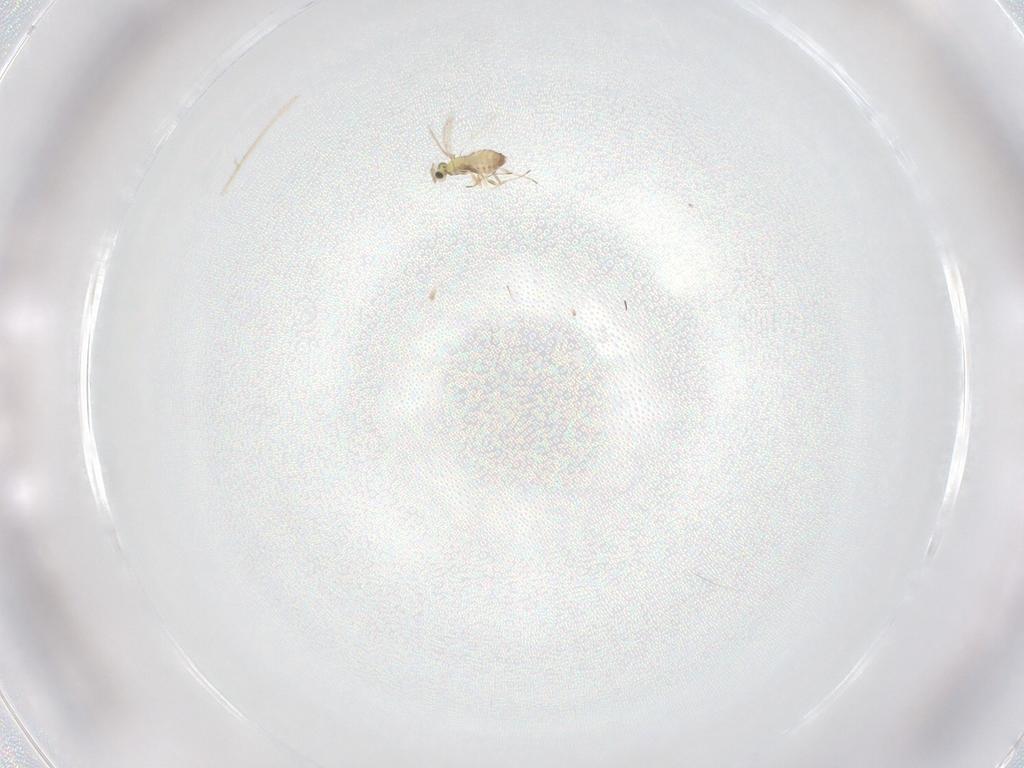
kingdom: Animalia
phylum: Arthropoda
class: Insecta
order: Hymenoptera
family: Trichogrammatidae
